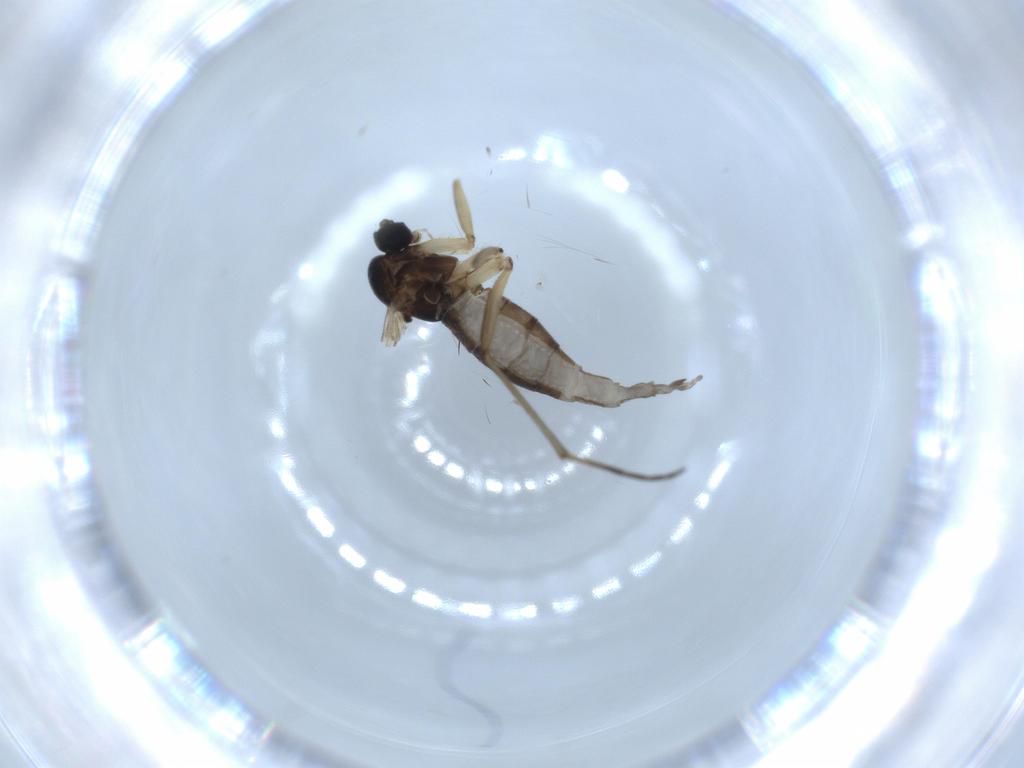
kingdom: Animalia
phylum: Arthropoda
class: Insecta
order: Diptera
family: Sciaridae
